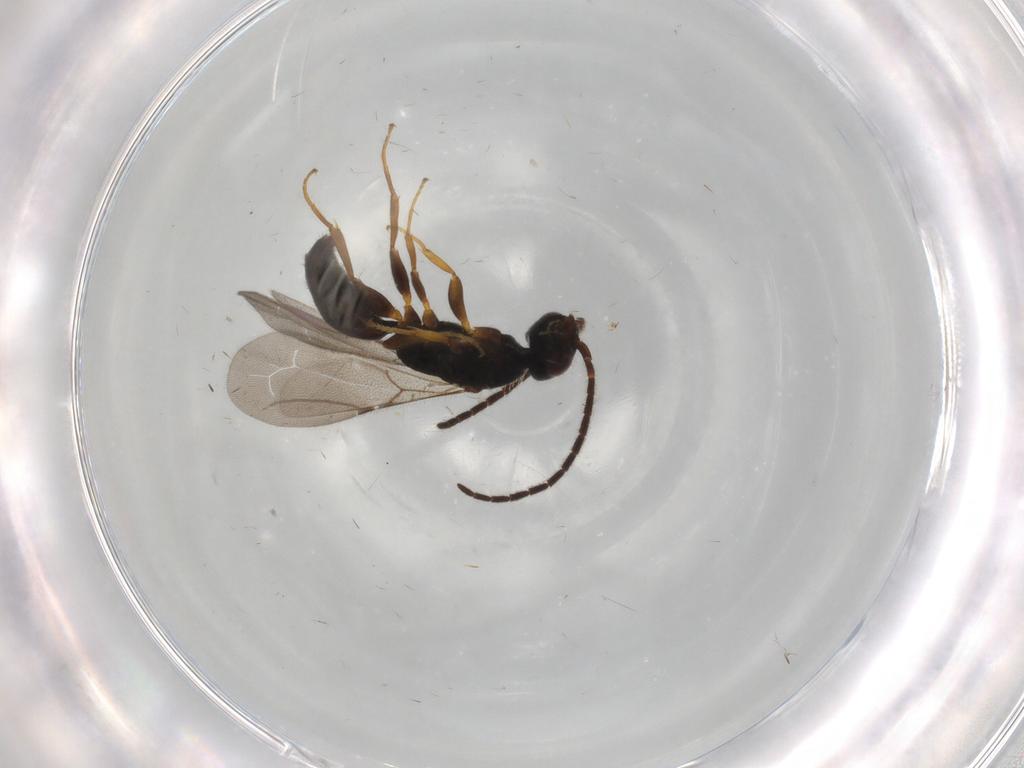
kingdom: Animalia
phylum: Arthropoda
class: Insecta
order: Hymenoptera
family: Bethylidae
